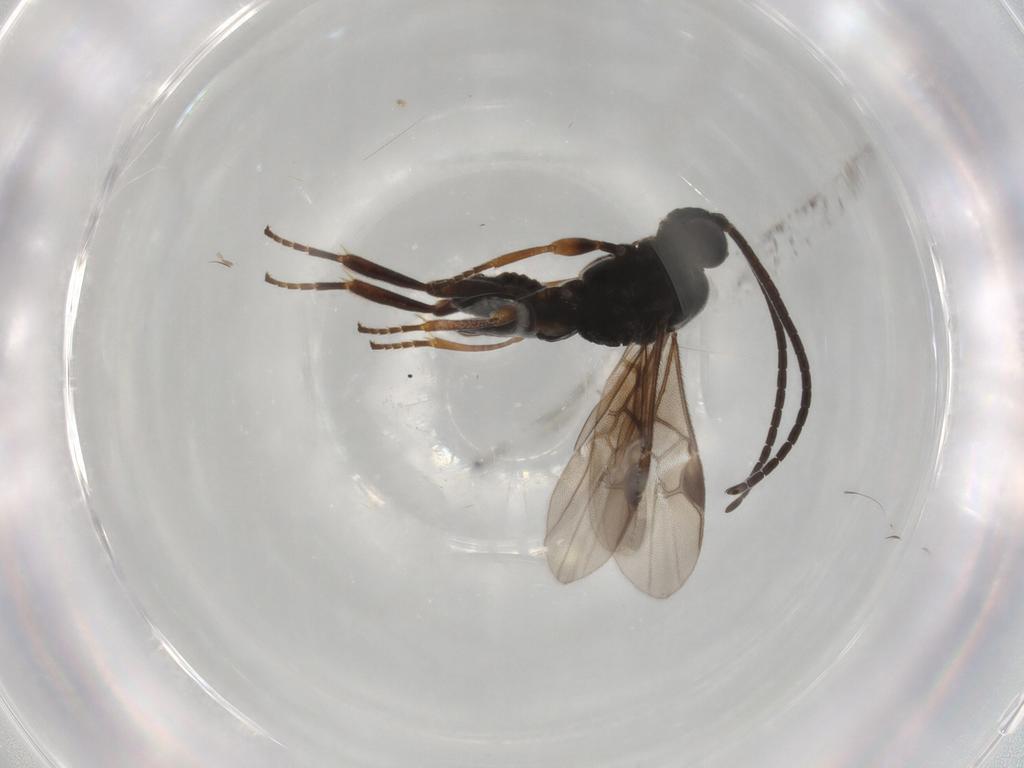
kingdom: Animalia
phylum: Arthropoda
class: Insecta
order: Hymenoptera
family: Braconidae
